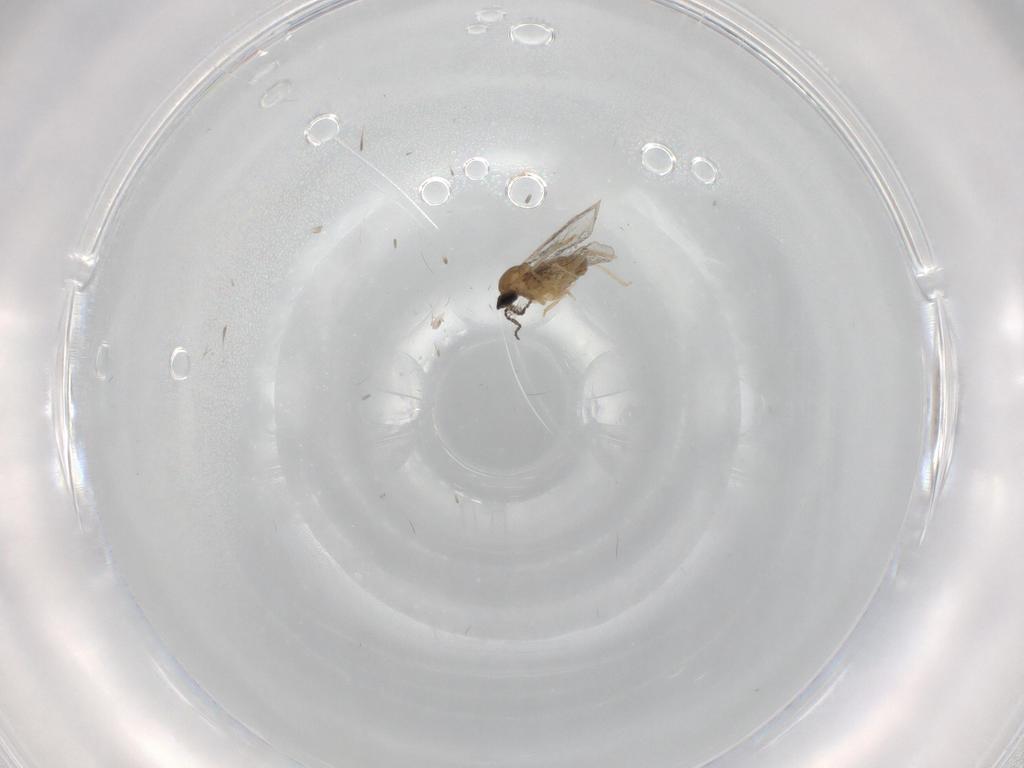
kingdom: Animalia
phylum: Arthropoda
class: Insecta
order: Diptera
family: Cecidomyiidae
